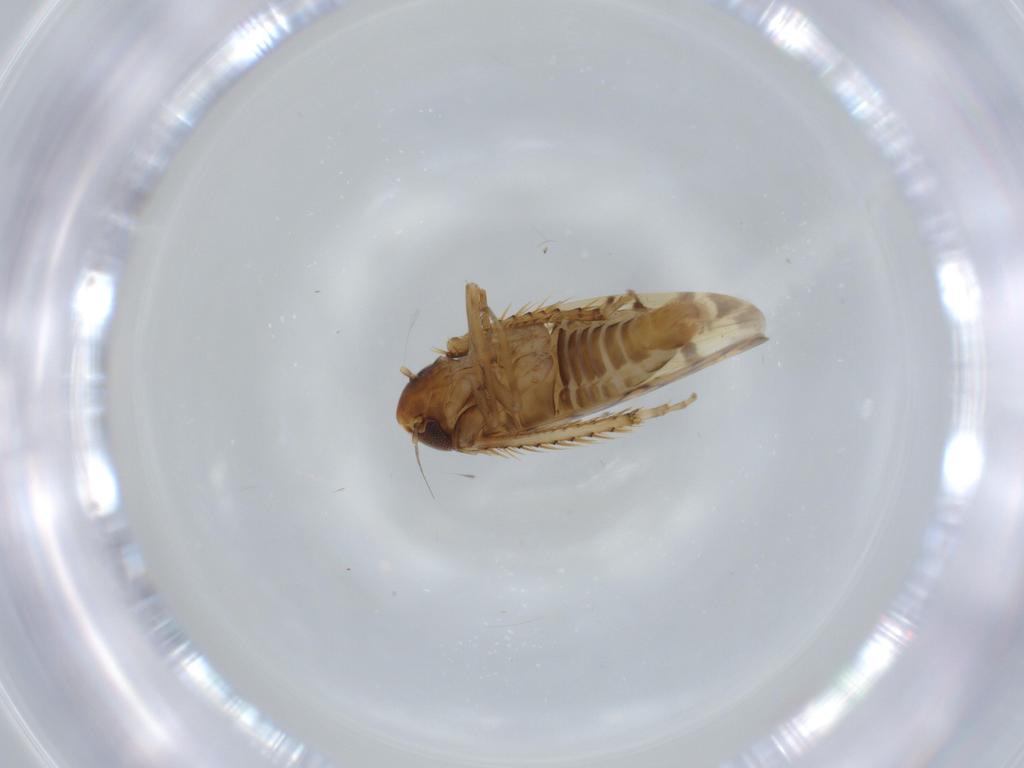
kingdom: Animalia
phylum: Arthropoda
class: Insecta
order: Hemiptera
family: Cicadellidae
